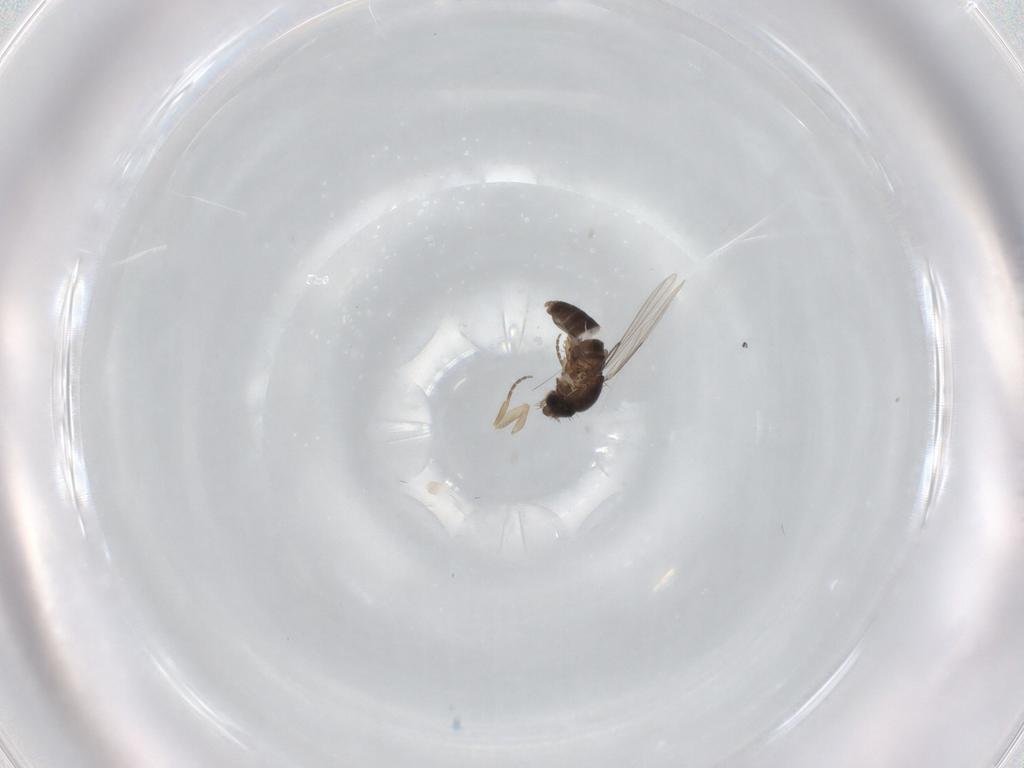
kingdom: Animalia
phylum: Arthropoda
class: Insecta
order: Diptera
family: Phoridae
